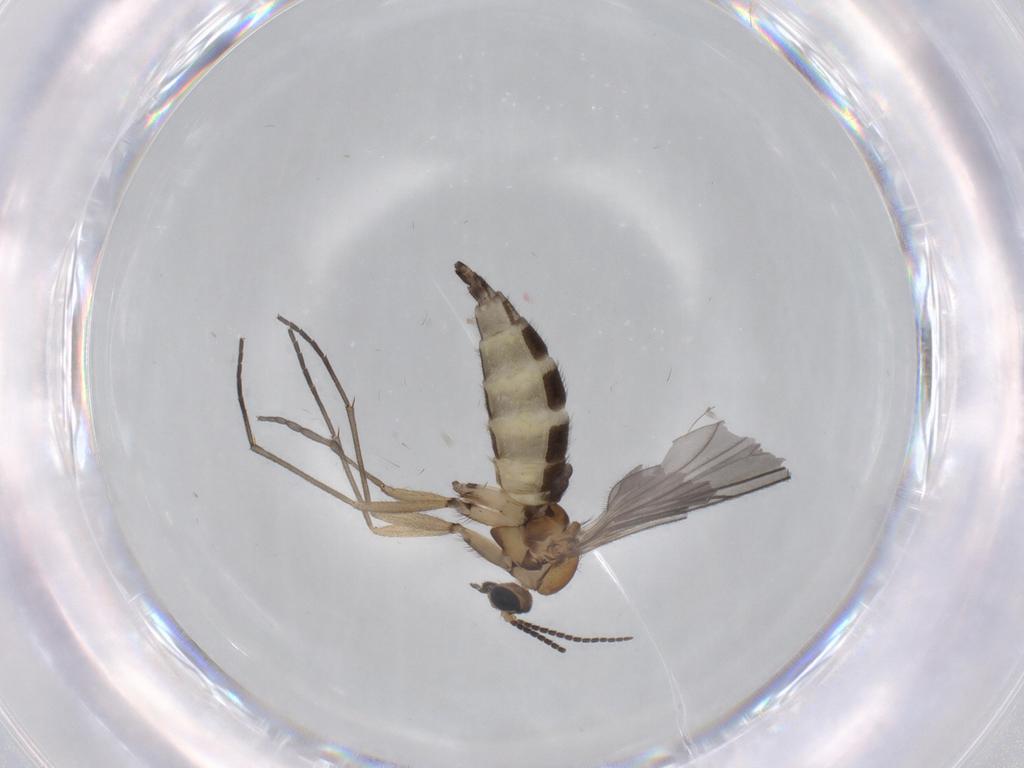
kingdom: Animalia
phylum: Arthropoda
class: Insecta
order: Diptera
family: Sciaridae
